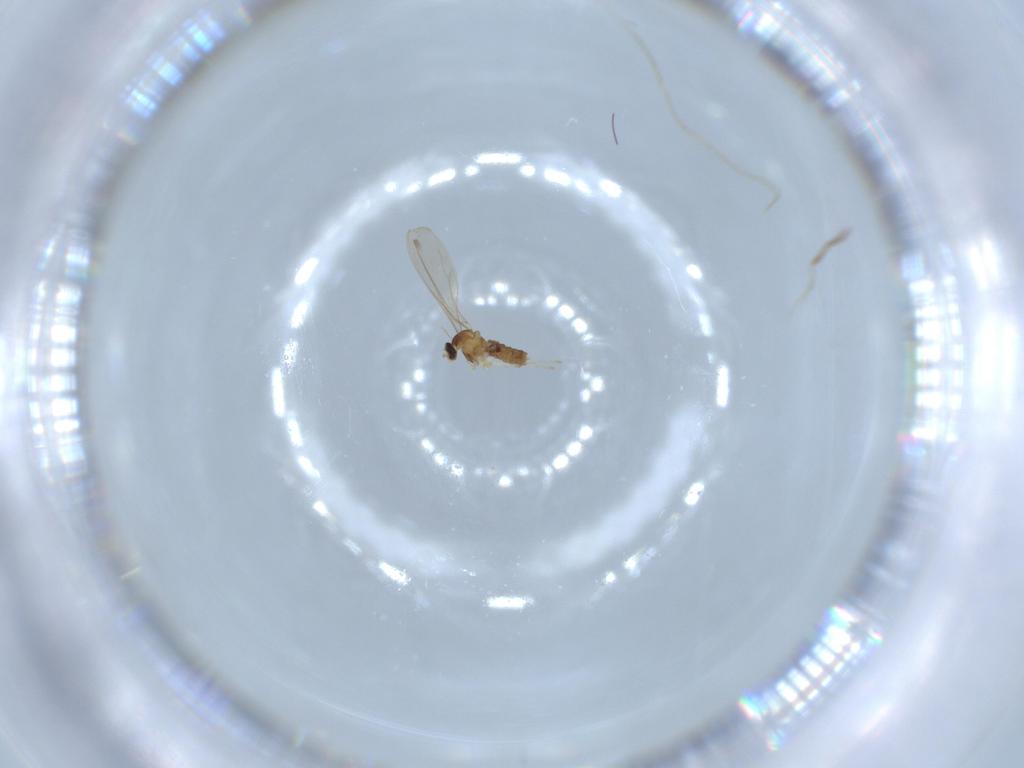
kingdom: Animalia
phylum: Arthropoda
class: Insecta
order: Diptera
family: Cecidomyiidae
